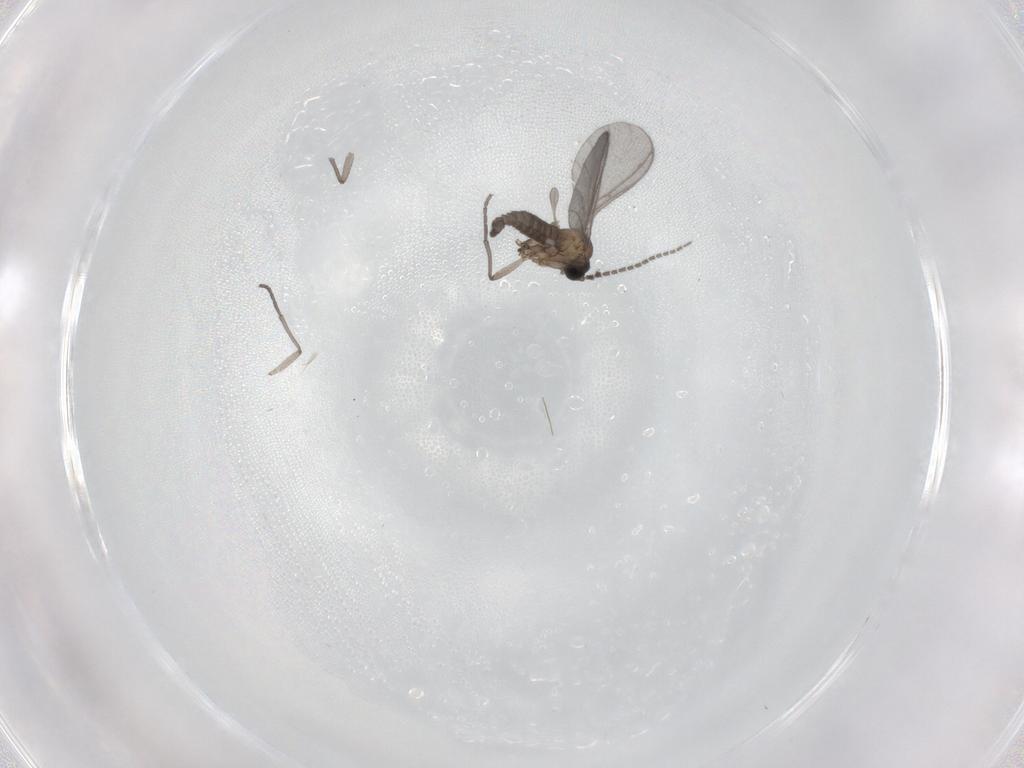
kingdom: Animalia
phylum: Arthropoda
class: Insecta
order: Diptera
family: Sciaridae
